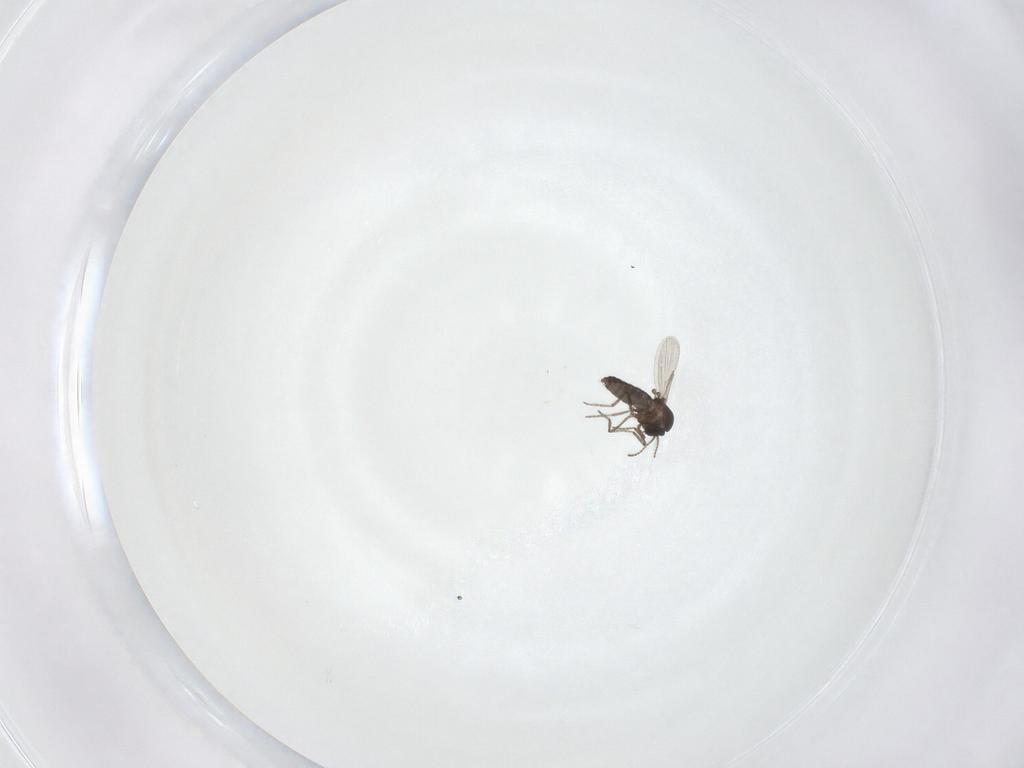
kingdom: Animalia
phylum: Arthropoda
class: Insecta
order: Diptera
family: Ceratopogonidae
